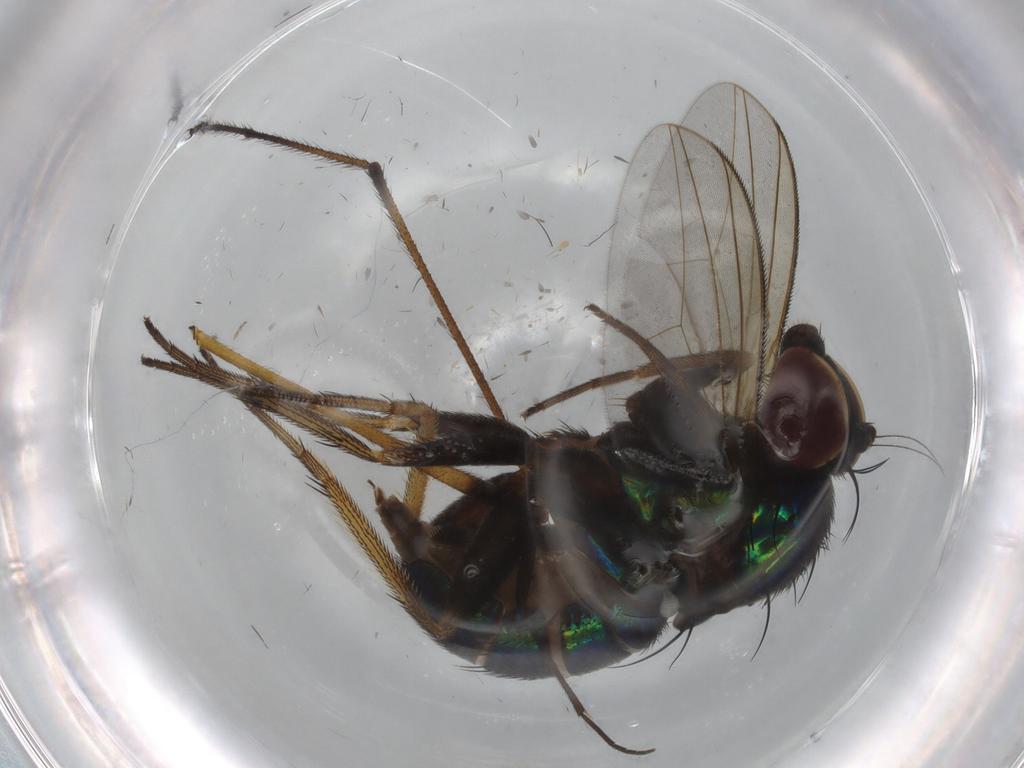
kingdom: Animalia
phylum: Arthropoda
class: Insecta
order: Diptera
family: Dolichopodidae
